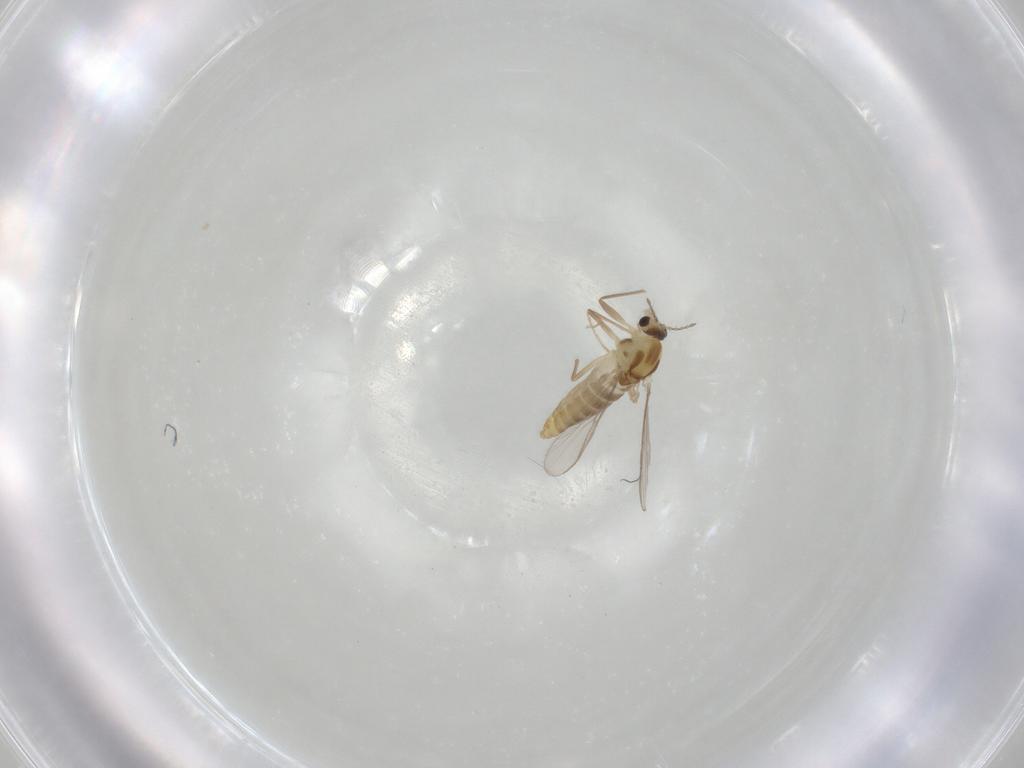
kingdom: Animalia
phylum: Arthropoda
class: Insecta
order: Diptera
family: Chironomidae
